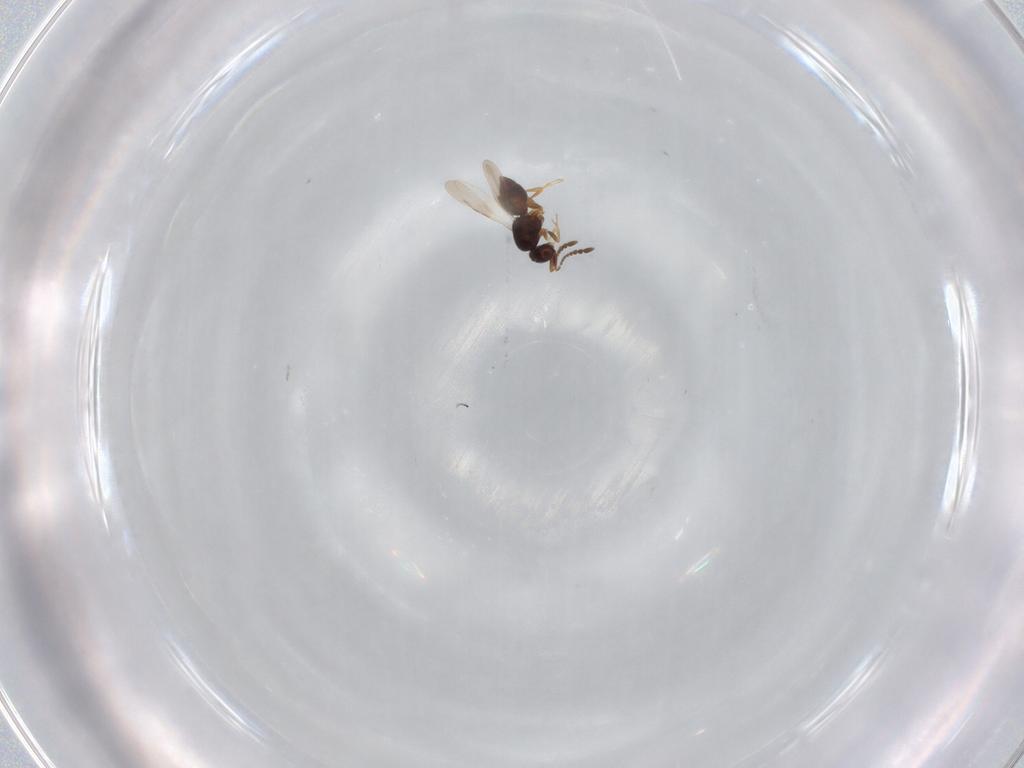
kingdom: Animalia
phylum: Arthropoda
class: Insecta
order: Hymenoptera
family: Ceraphronidae
